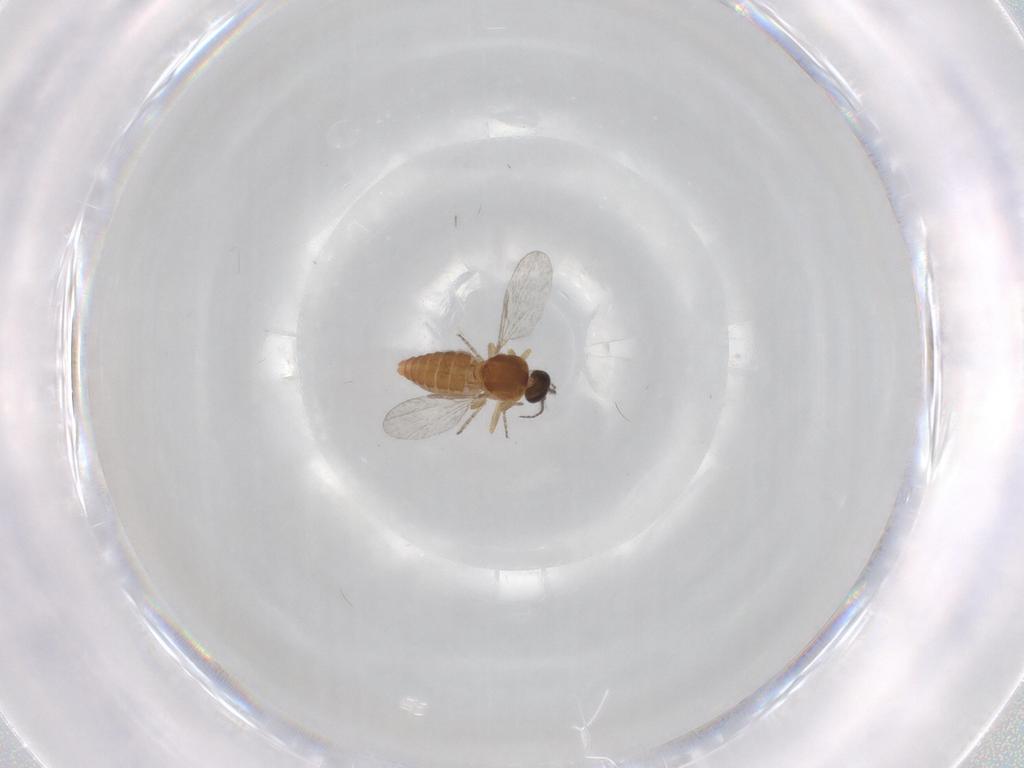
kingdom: Animalia
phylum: Arthropoda
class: Insecta
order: Diptera
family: Ceratopogonidae
